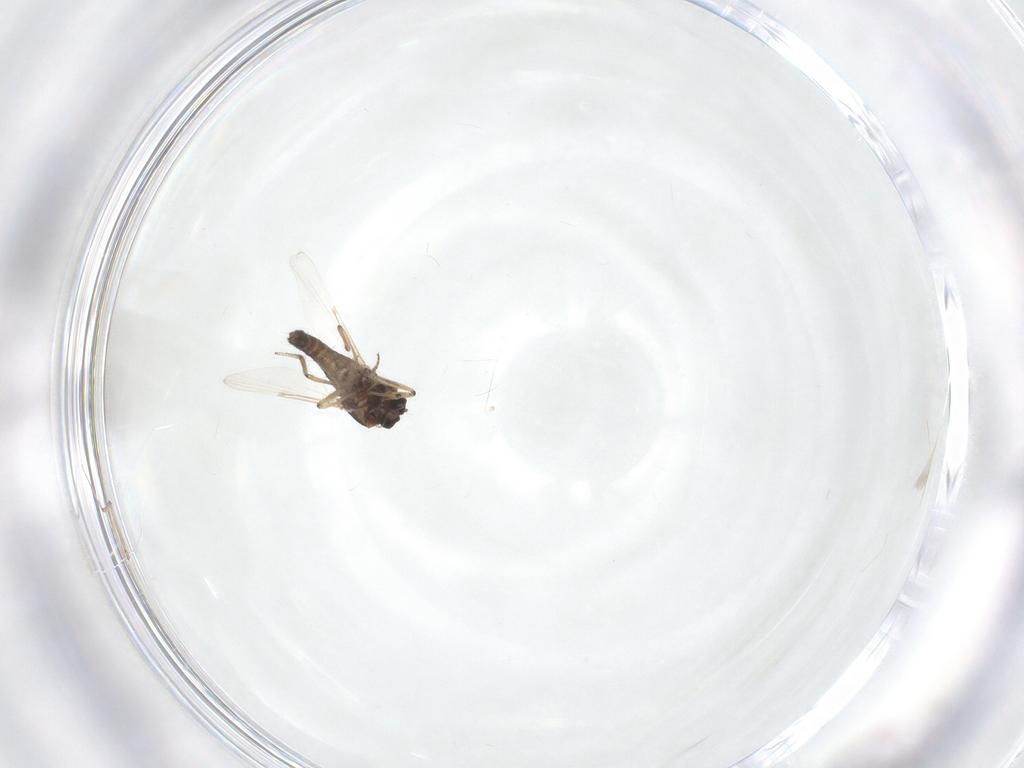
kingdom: Animalia
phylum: Arthropoda
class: Insecta
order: Diptera
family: Ceratopogonidae
